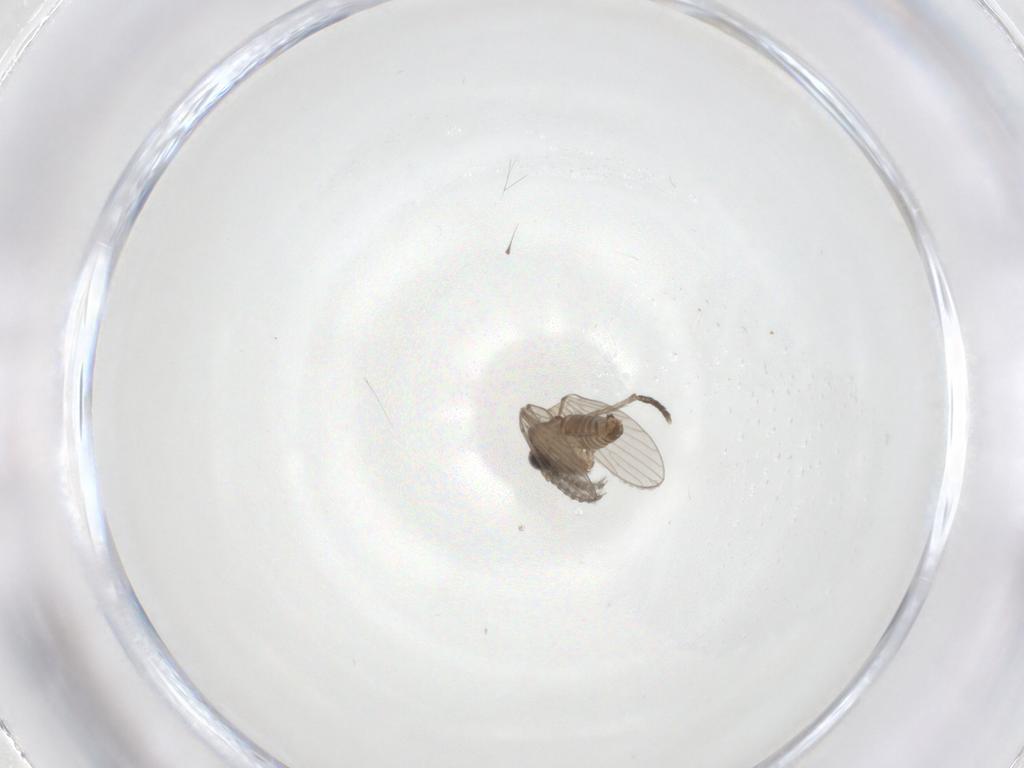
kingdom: Animalia
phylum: Arthropoda
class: Insecta
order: Diptera
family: Psychodidae
